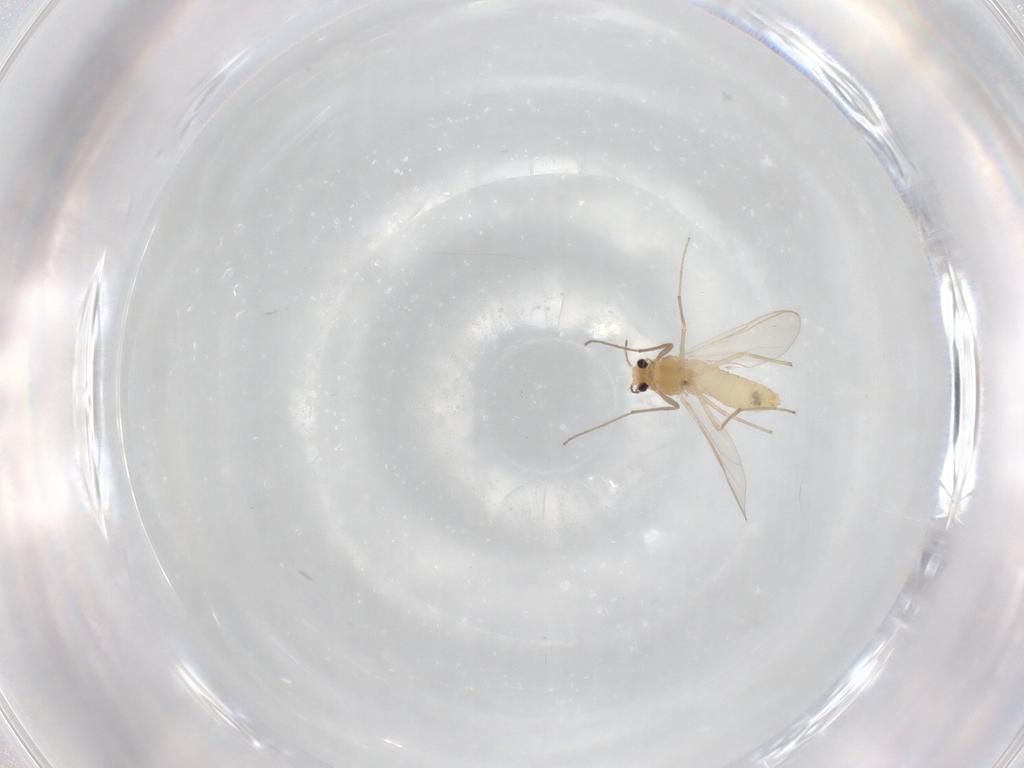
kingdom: Animalia
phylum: Arthropoda
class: Insecta
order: Diptera
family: Chironomidae
